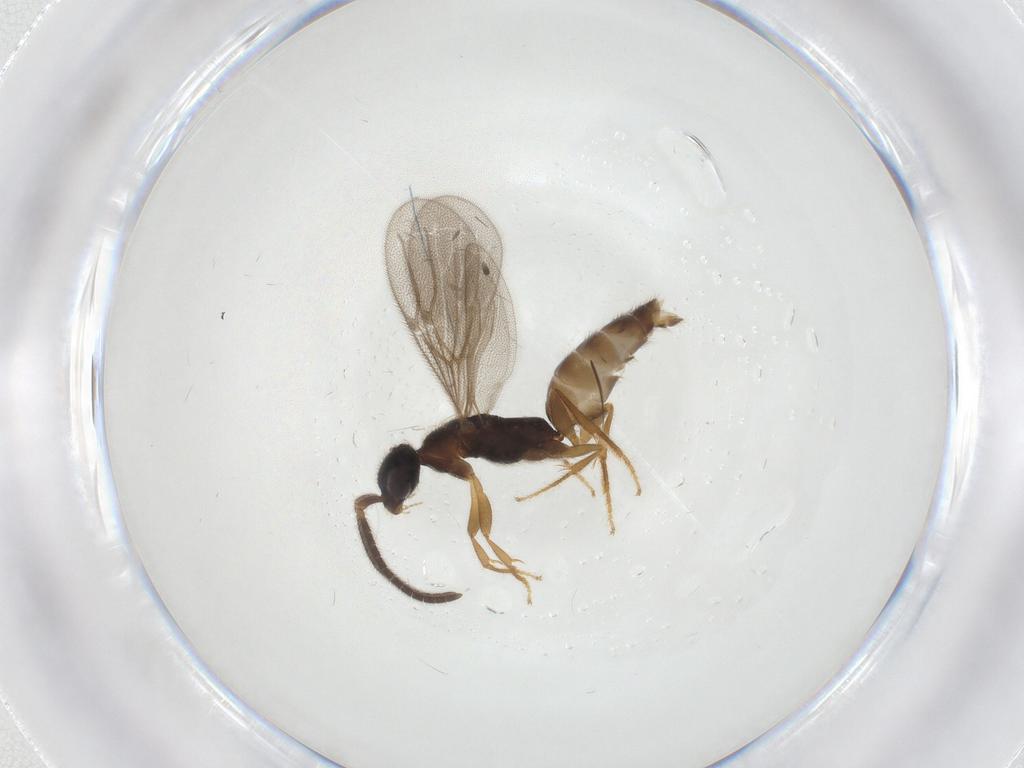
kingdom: Animalia
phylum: Arthropoda
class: Insecta
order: Hymenoptera
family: Bethylidae
